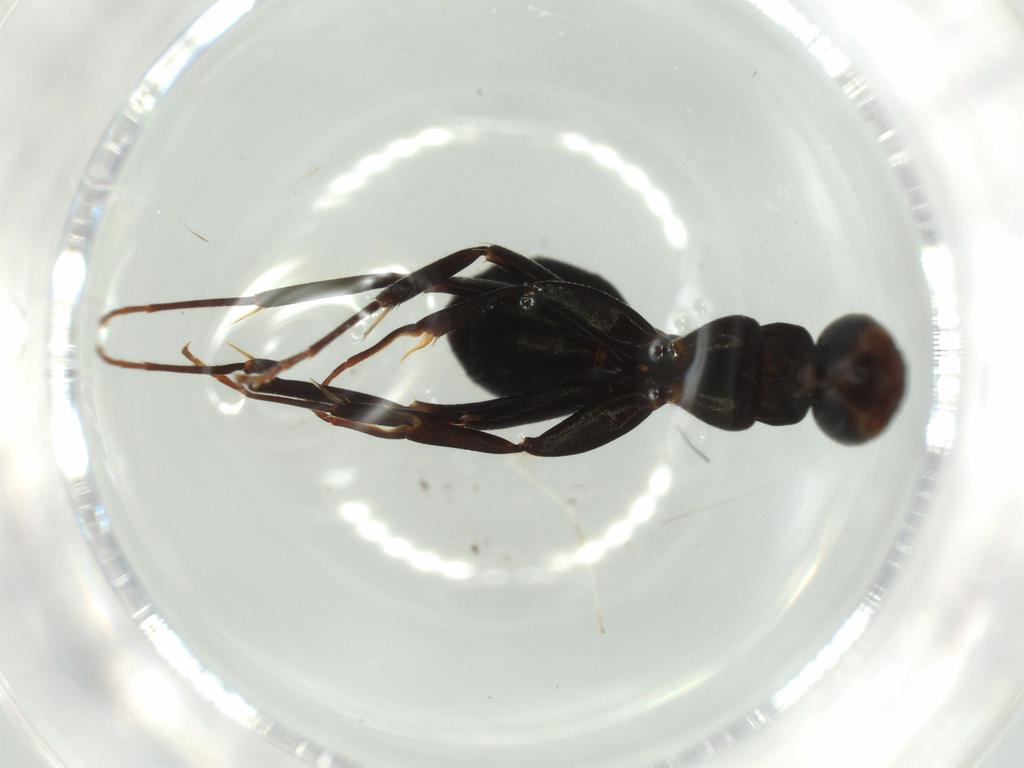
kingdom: Animalia
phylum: Arthropoda
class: Insecta
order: Hymenoptera
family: Formicidae
